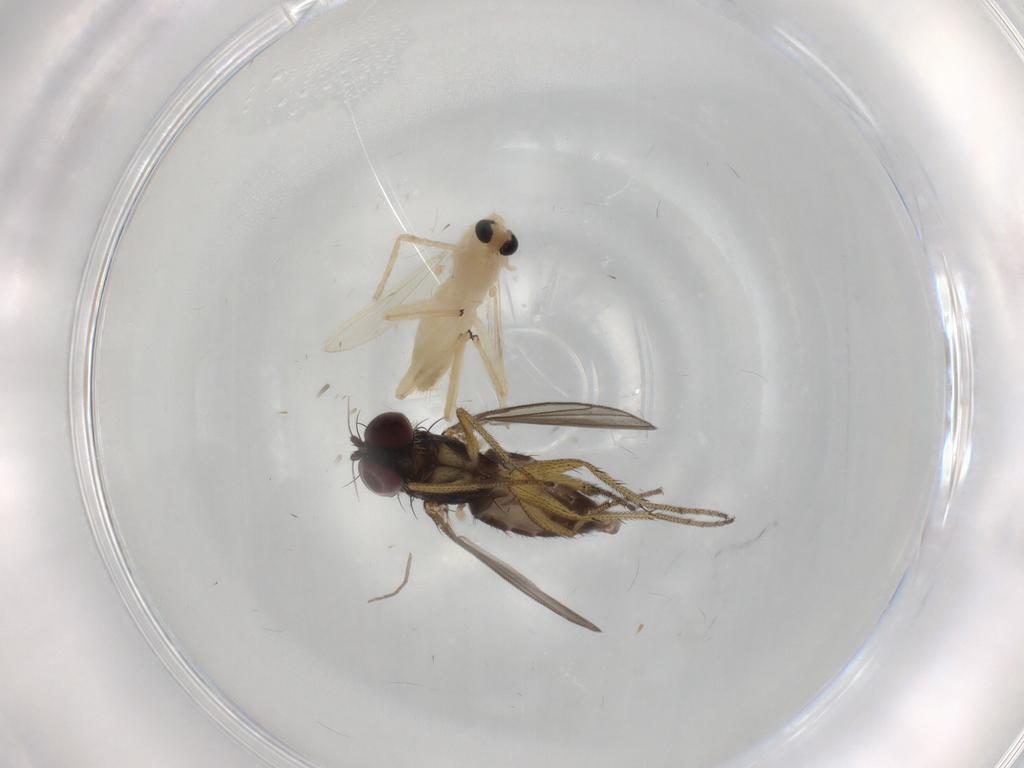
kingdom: Animalia
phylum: Arthropoda
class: Insecta
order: Diptera
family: Chironomidae
